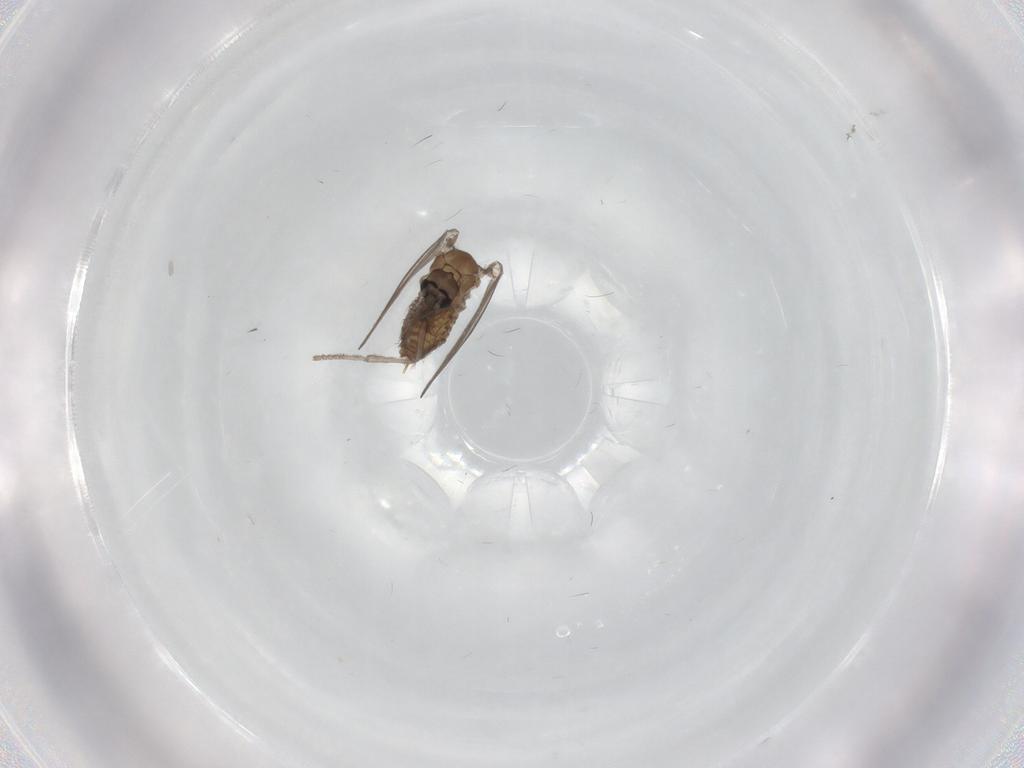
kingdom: Animalia
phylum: Arthropoda
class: Insecta
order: Diptera
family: Psychodidae
